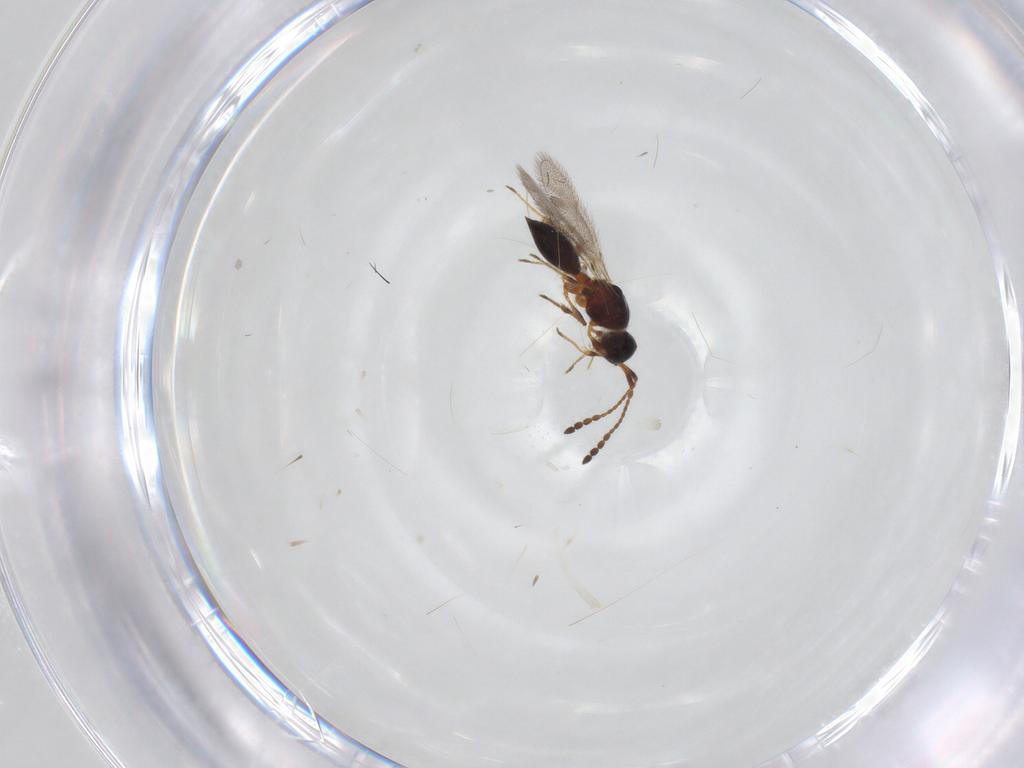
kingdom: Animalia
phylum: Arthropoda
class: Insecta
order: Hymenoptera
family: Diapriidae
